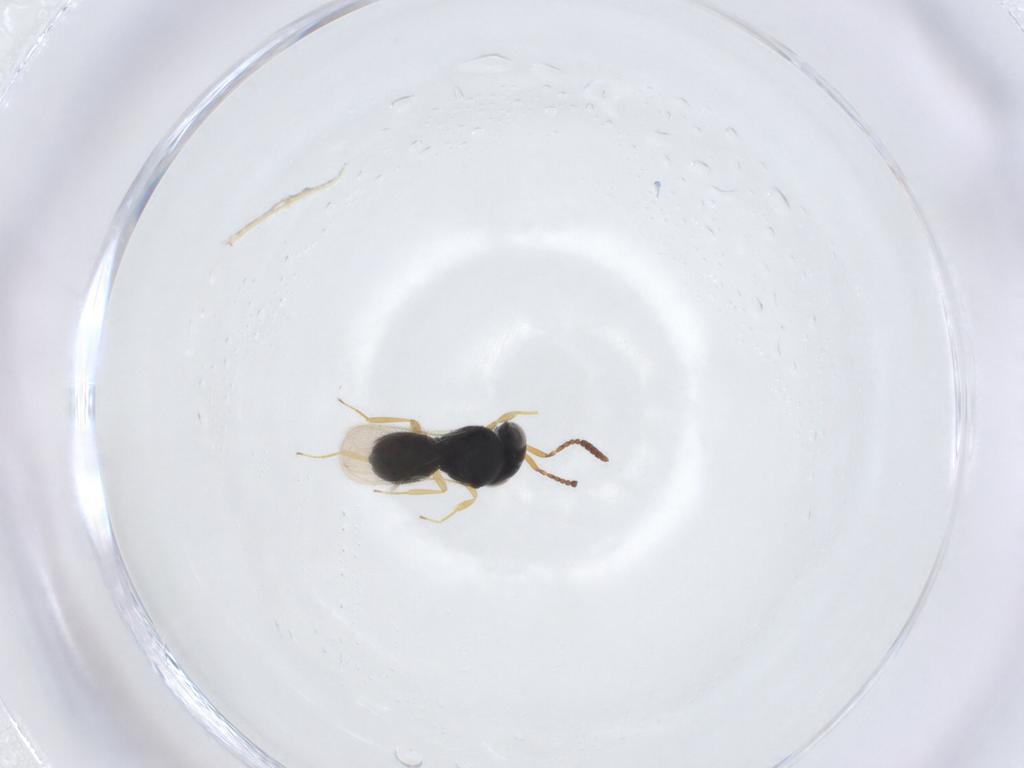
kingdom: Animalia
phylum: Arthropoda
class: Insecta
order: Hymenoptera
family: Scelionidae
